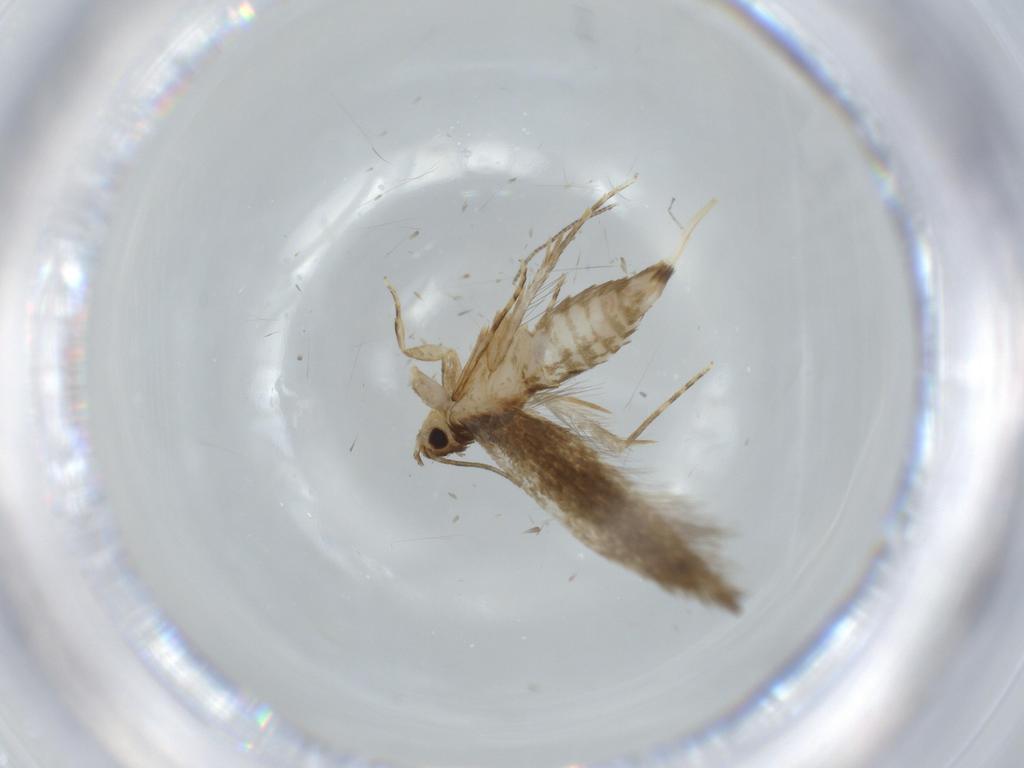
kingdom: Animalia
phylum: Arthropoda
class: Insecta
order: Lepidoptera
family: Tineidae
